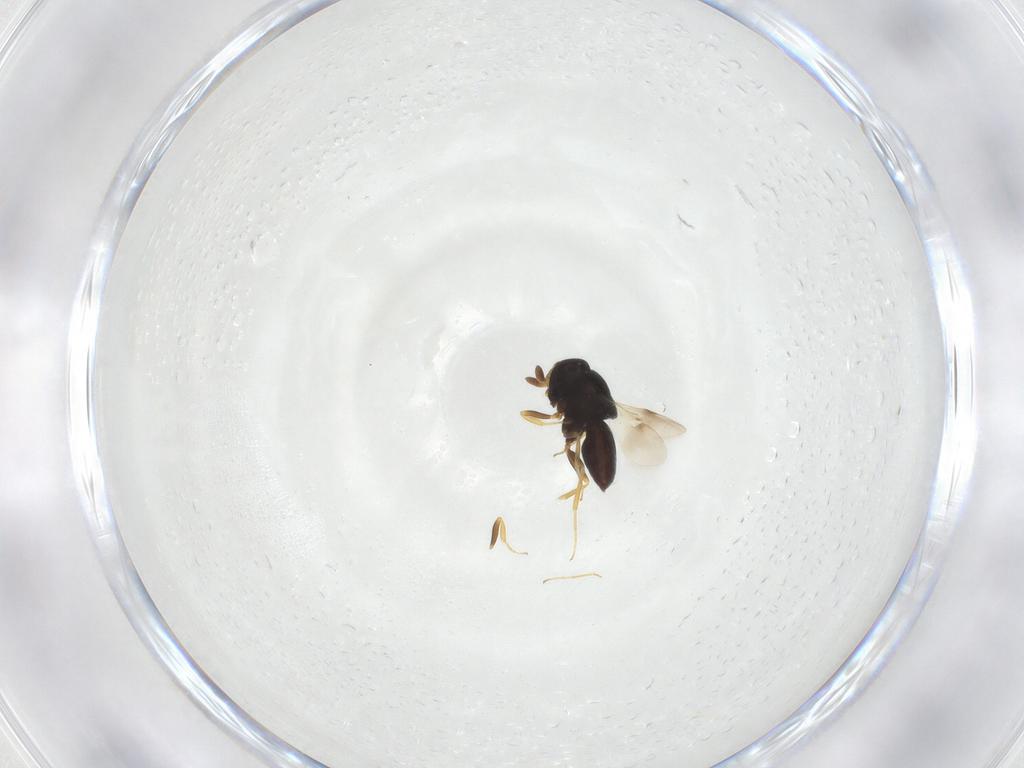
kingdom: Animalia
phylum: Arthropoda
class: Insecta
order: Hymenoptera
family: Scelionidae
